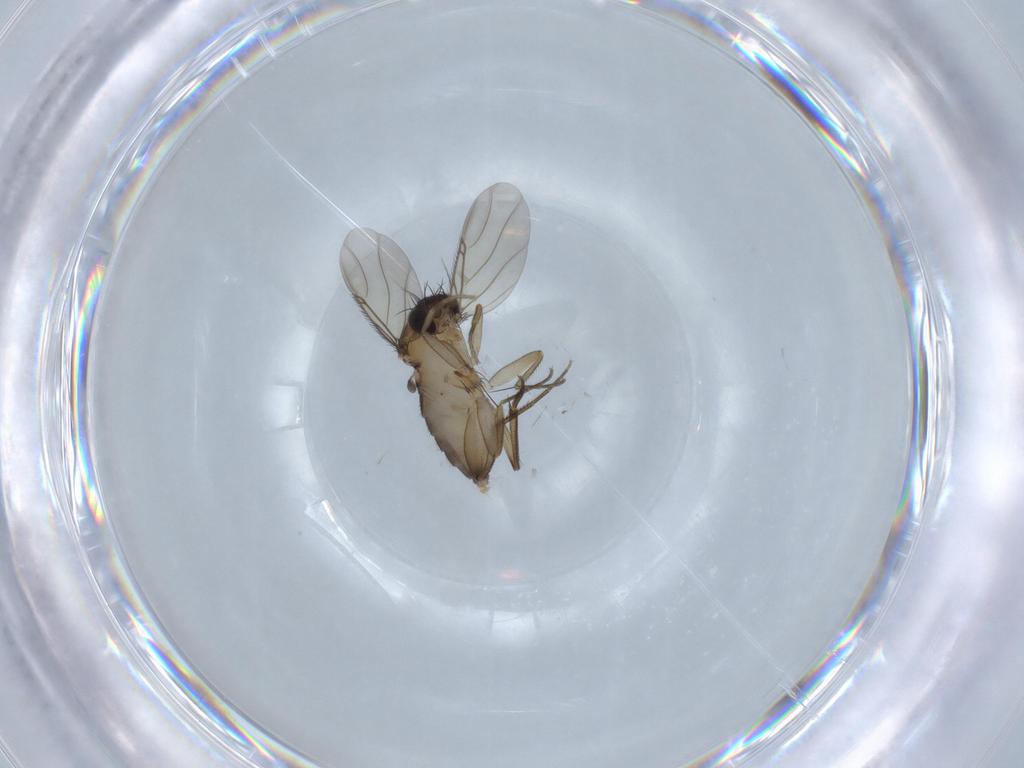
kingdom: Animalia
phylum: Arthropoda
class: Insecta
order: Diptera
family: Phoridae
